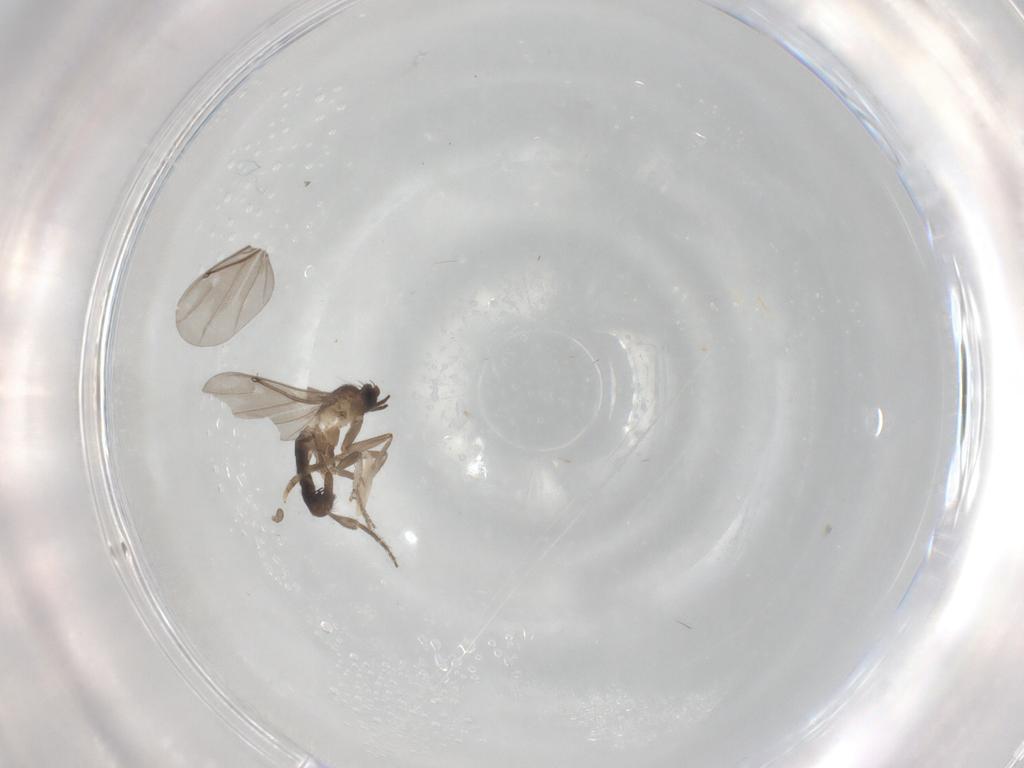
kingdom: Animalia
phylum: Arthropoda
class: Insecta
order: Diptera
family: Phoridae
